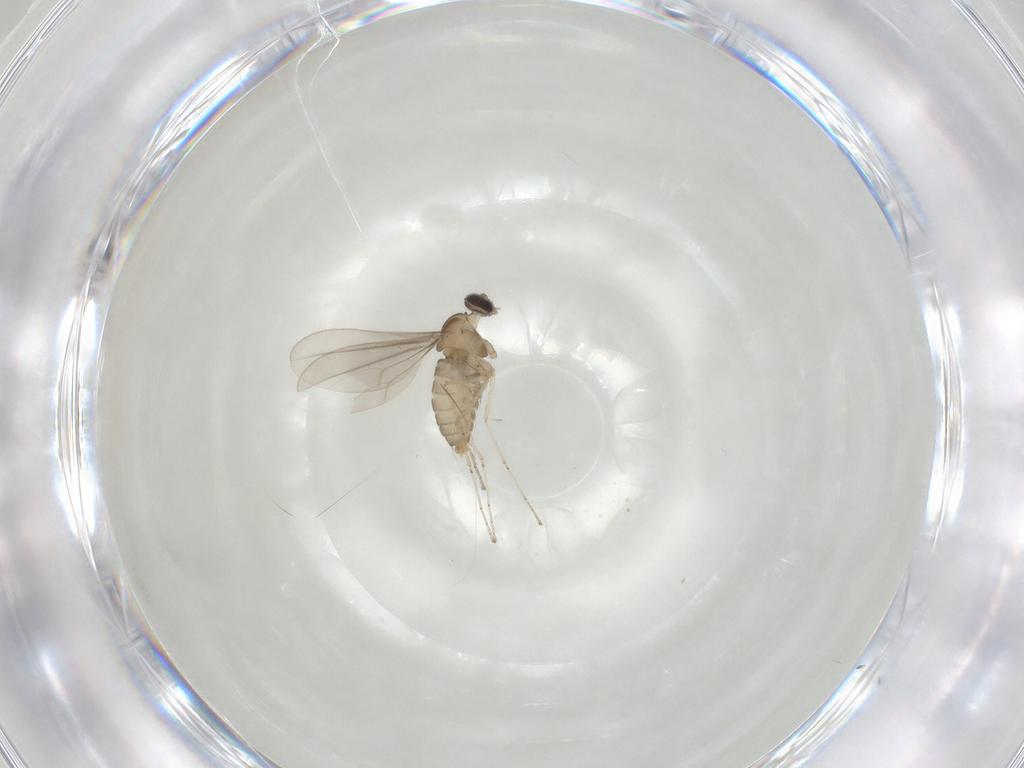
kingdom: Animalia
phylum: Arthropoda
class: Insecta
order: Diptera
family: Cecidomyiidae
